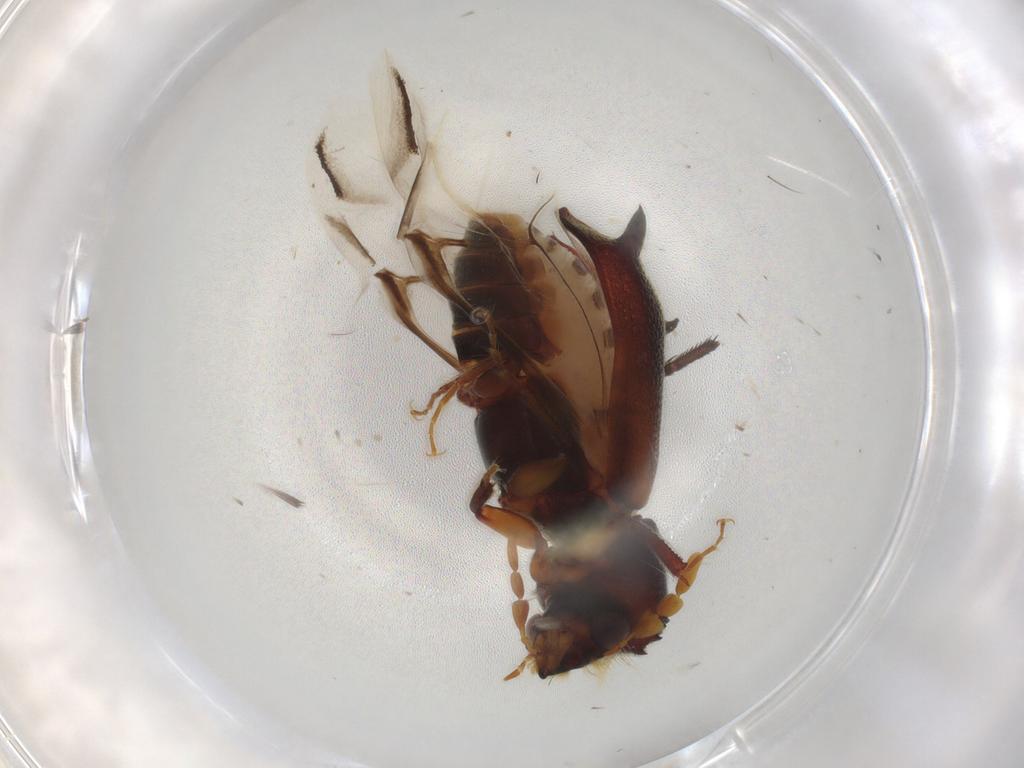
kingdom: Animalia
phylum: Arthropoda
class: Insecta
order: Coleoptera
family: Bostrichidae
